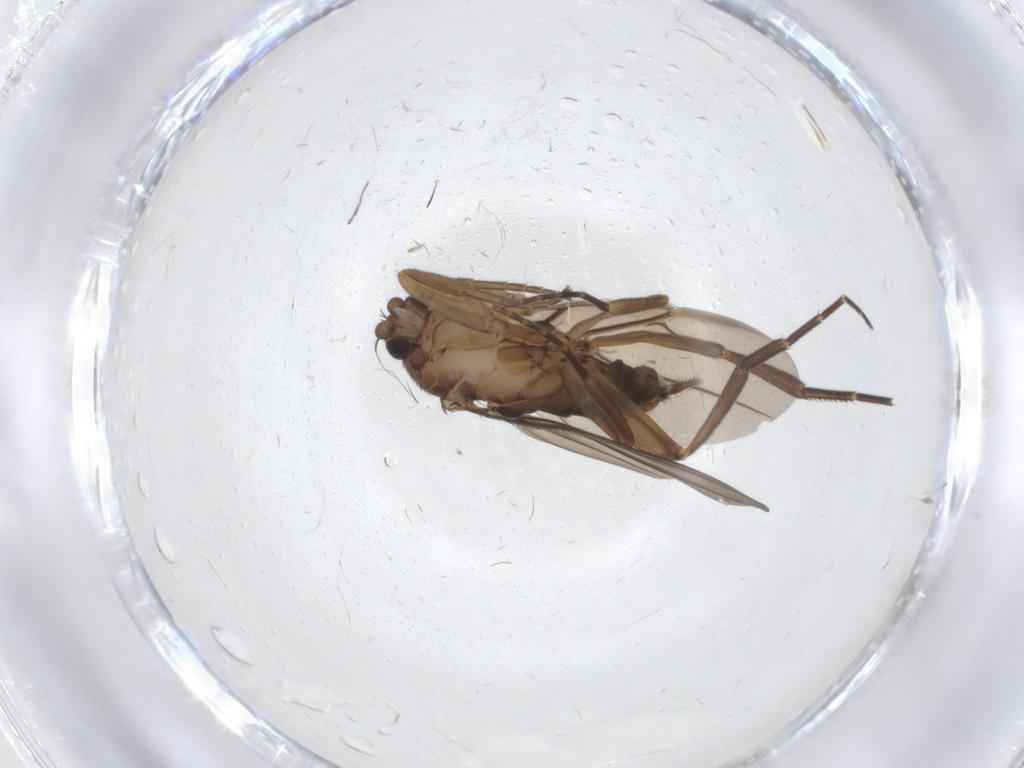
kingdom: Animalia
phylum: Arthropoda
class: Insecta
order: Diptera
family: Phoridae
